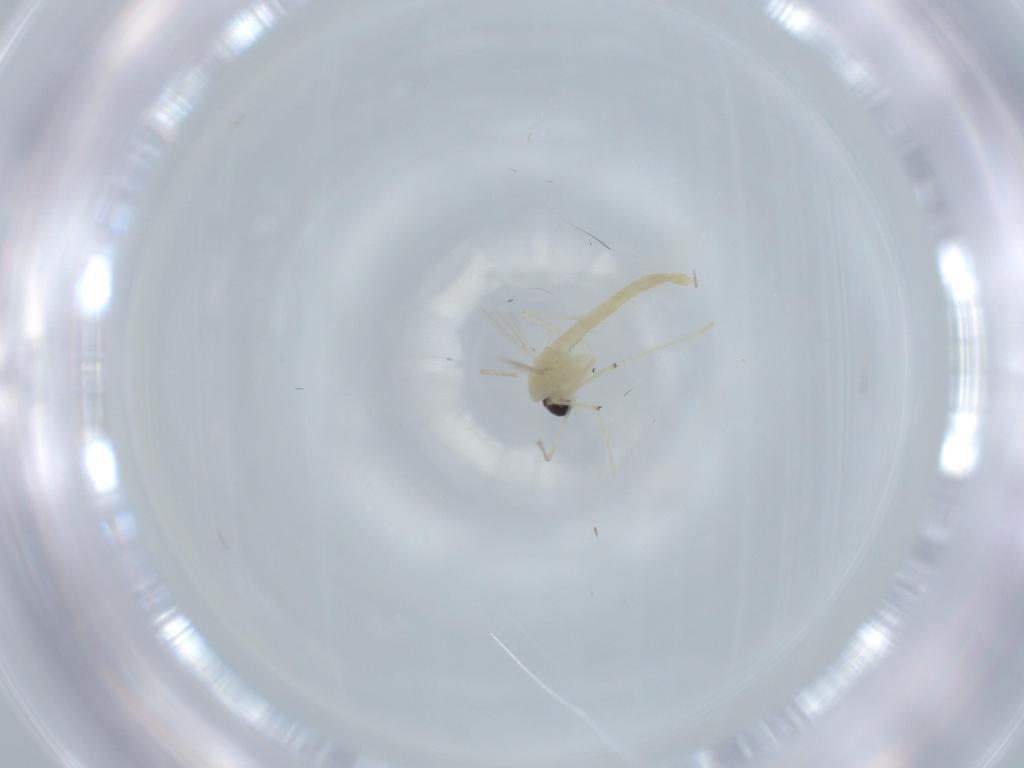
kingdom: Animalia
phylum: Arthropoda
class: Insecta
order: Diptera
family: Chironomidae
